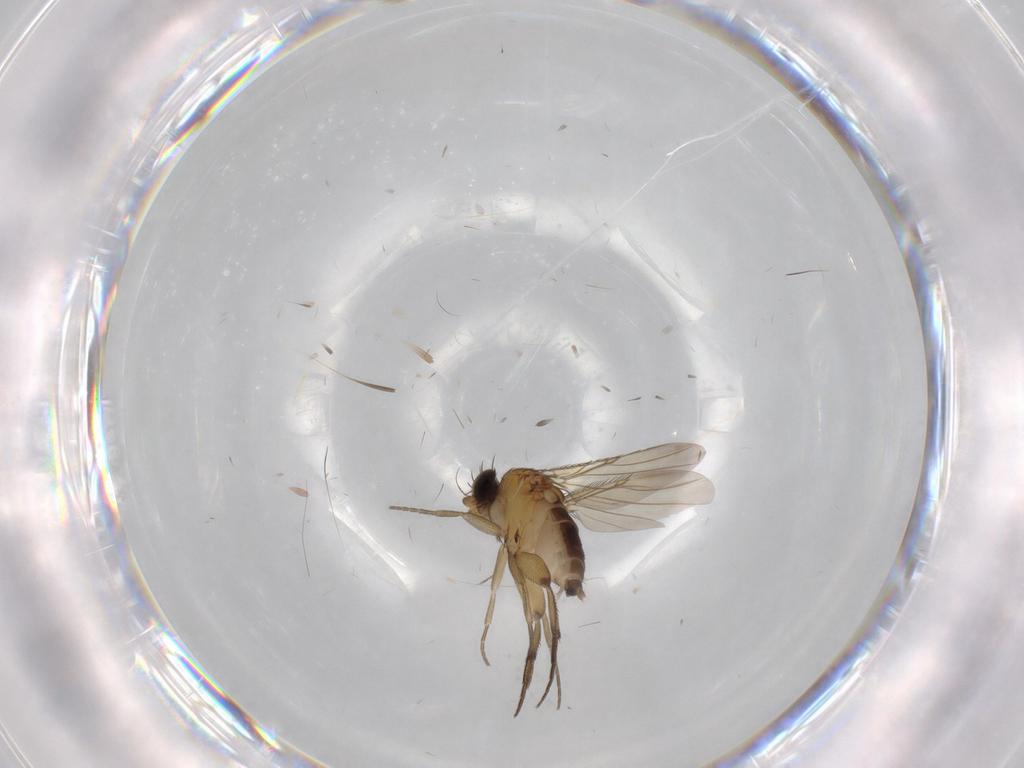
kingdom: Animalia
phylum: Arthropoda
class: Insecta
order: Diptera
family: Phoridae
